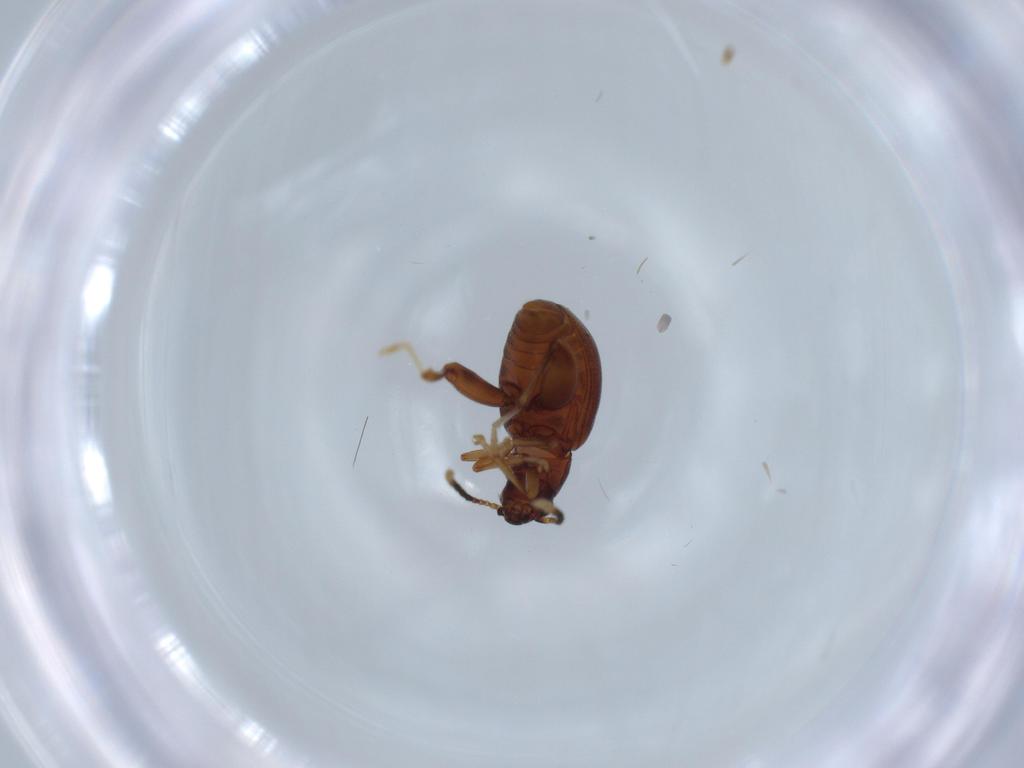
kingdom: Animalia
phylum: Arthropoda
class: Insecta
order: Coleoptera
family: Chrysomelidae
